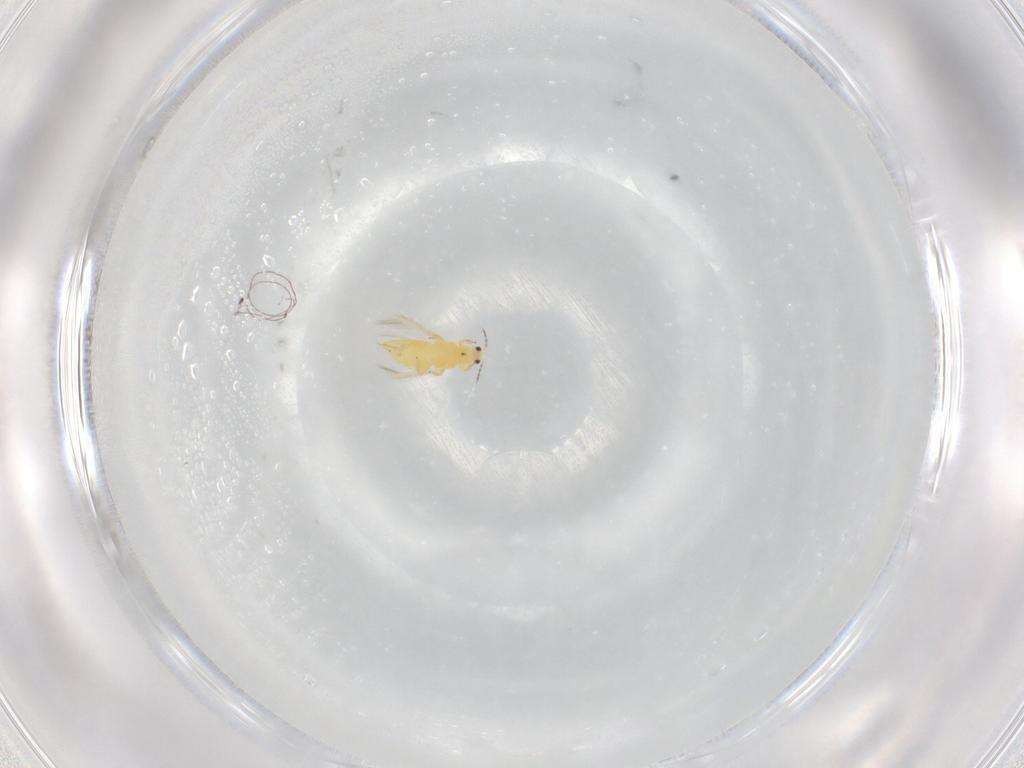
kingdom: Animalia
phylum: Arthropoda
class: Insecta
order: Thysanoptera
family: Thripidae
